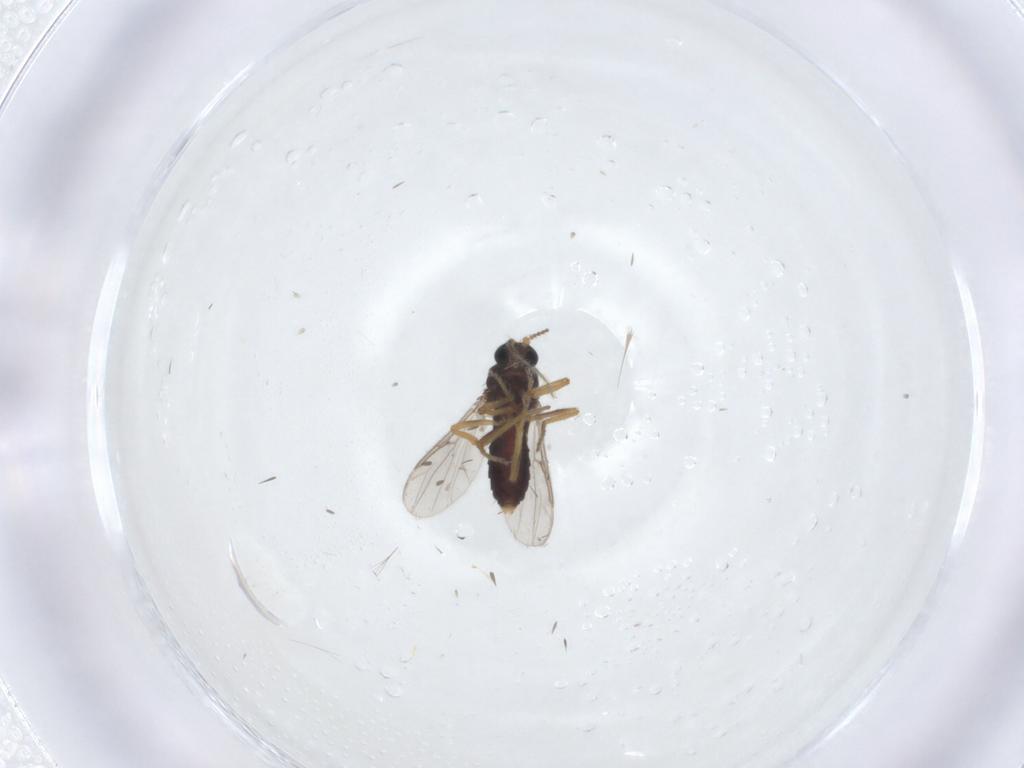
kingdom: Animalia
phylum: Arthropoda
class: Insecta
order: Diptera
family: Ceratopogonidae
